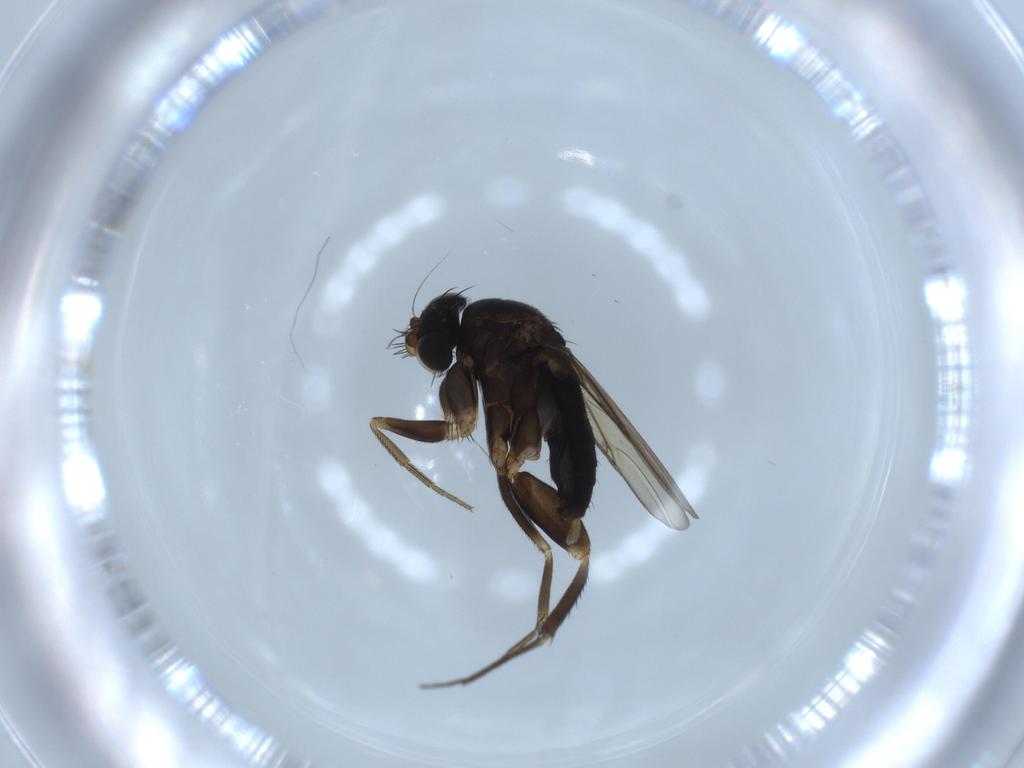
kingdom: Animalia
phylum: Arthropoda
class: Insecta
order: Diptera
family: Phoridae
